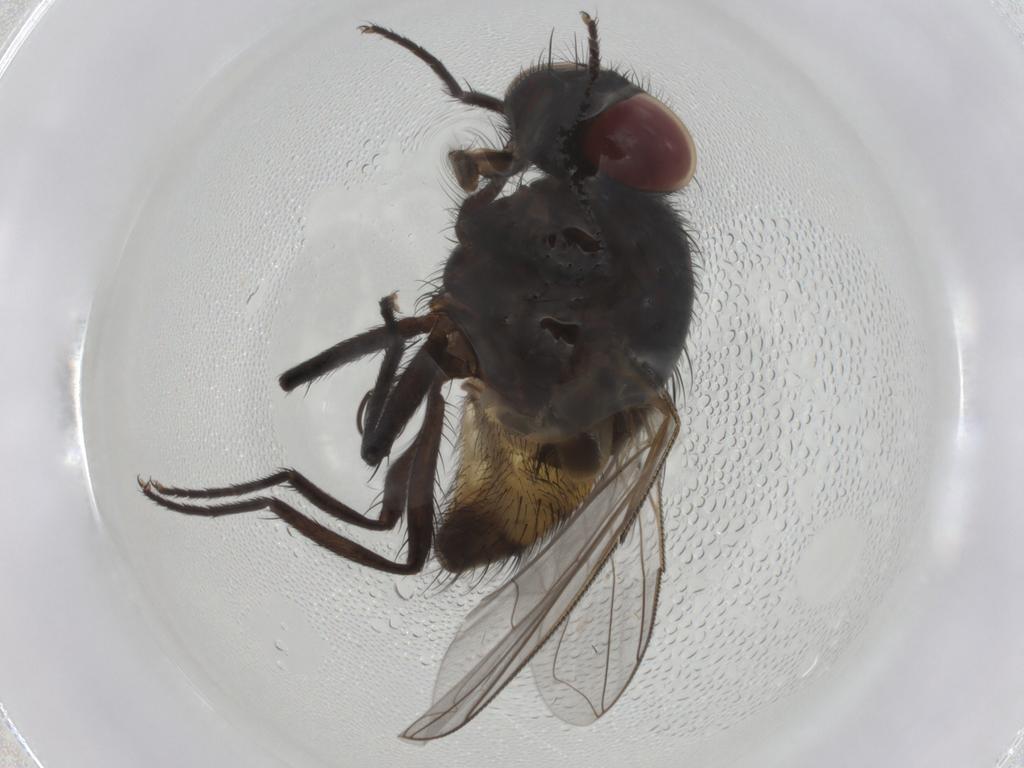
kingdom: Animalia
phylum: Arthropoda
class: Insecta
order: Diptera
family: Muscidae
